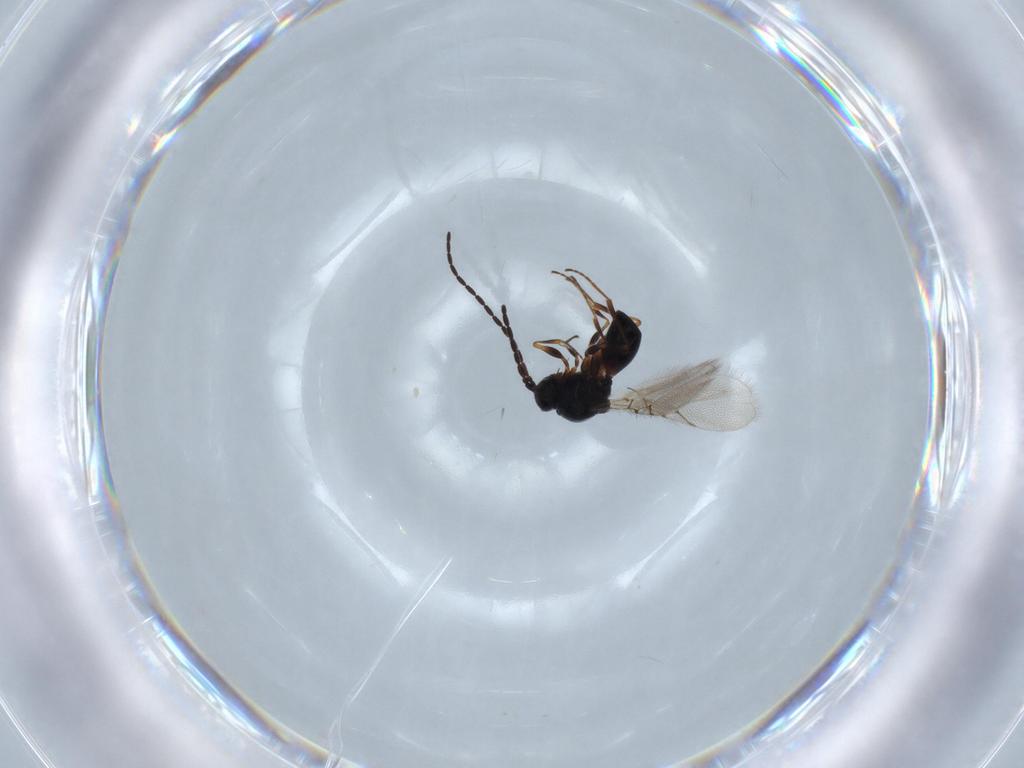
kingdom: Animalia
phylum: Arthropoda
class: Insecta
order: Hymenoptera
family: Figitidae
